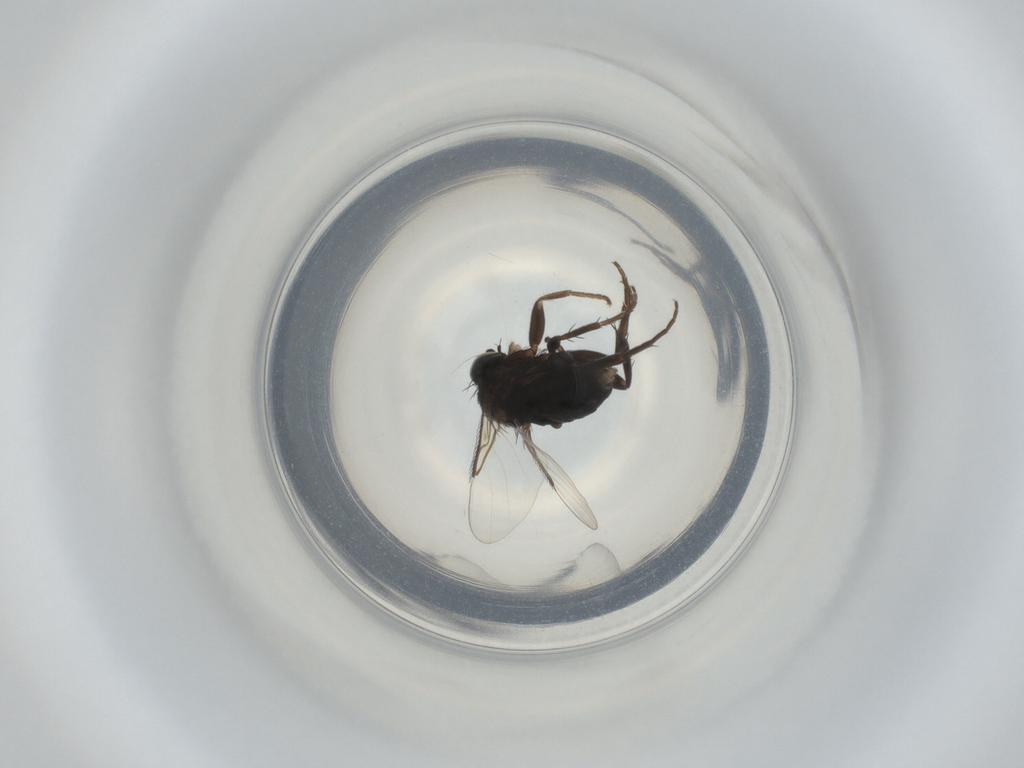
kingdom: Animalia
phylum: Arthropoda
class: Insecta
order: Diptera
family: Phoridae
